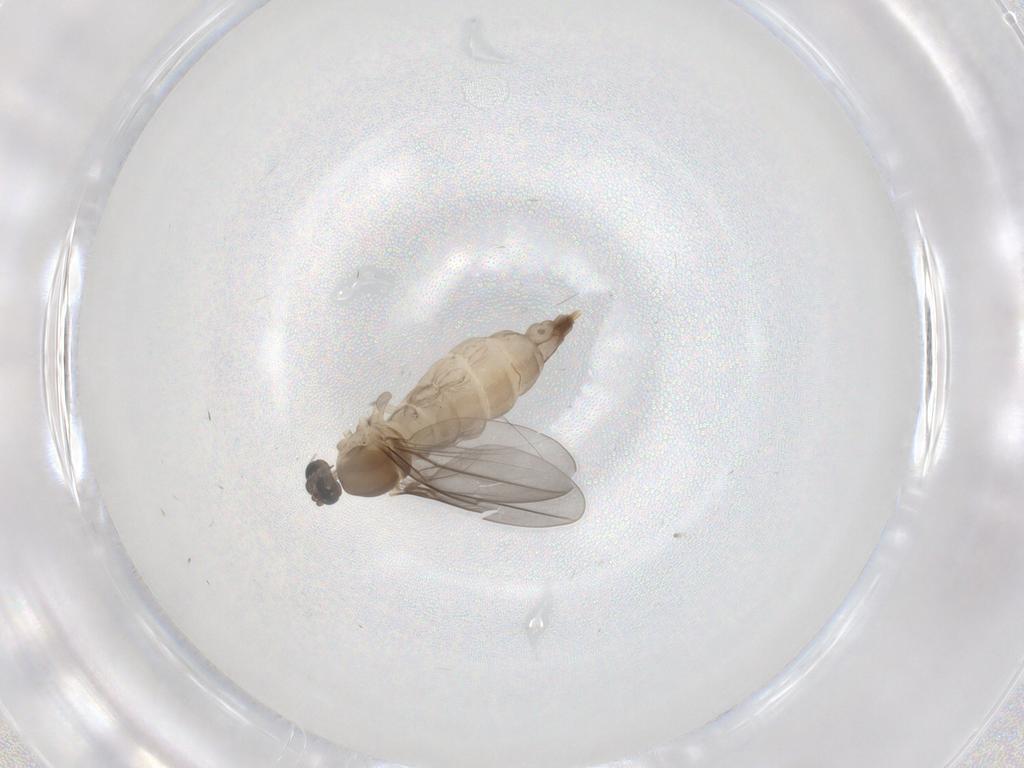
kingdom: Animalia
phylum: Arthropoda
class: Insecta
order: Diptera
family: Cecidomyiidae
